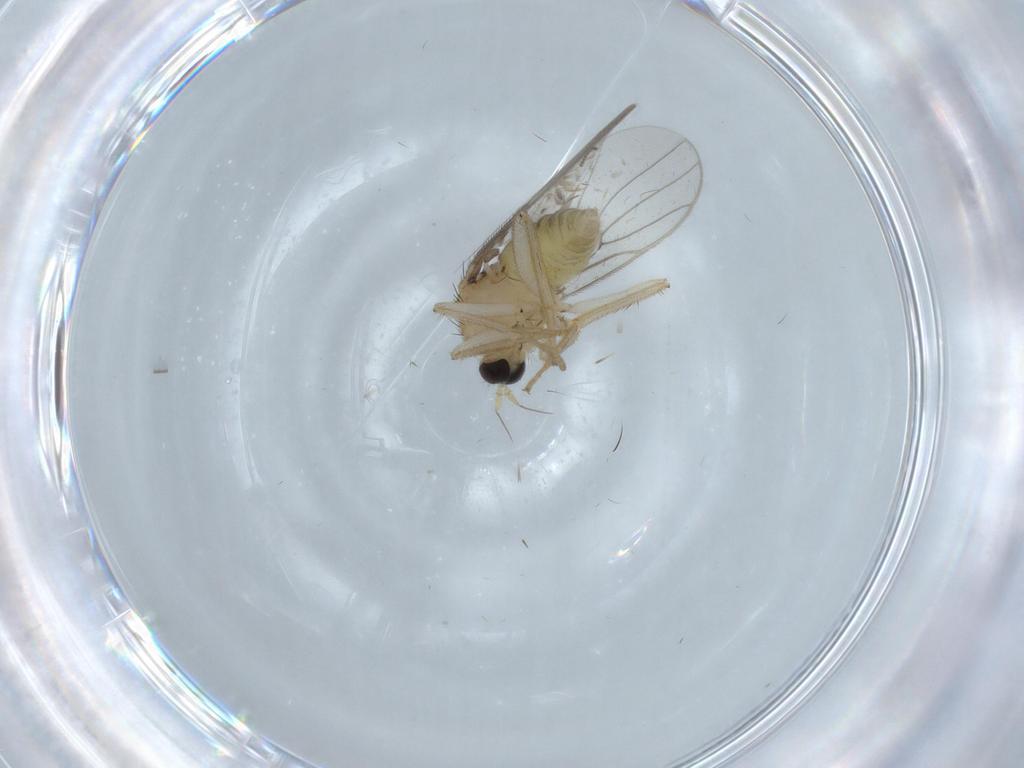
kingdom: Animalia
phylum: Arthropoda
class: Insecta
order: Diptera
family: Hybotidae
